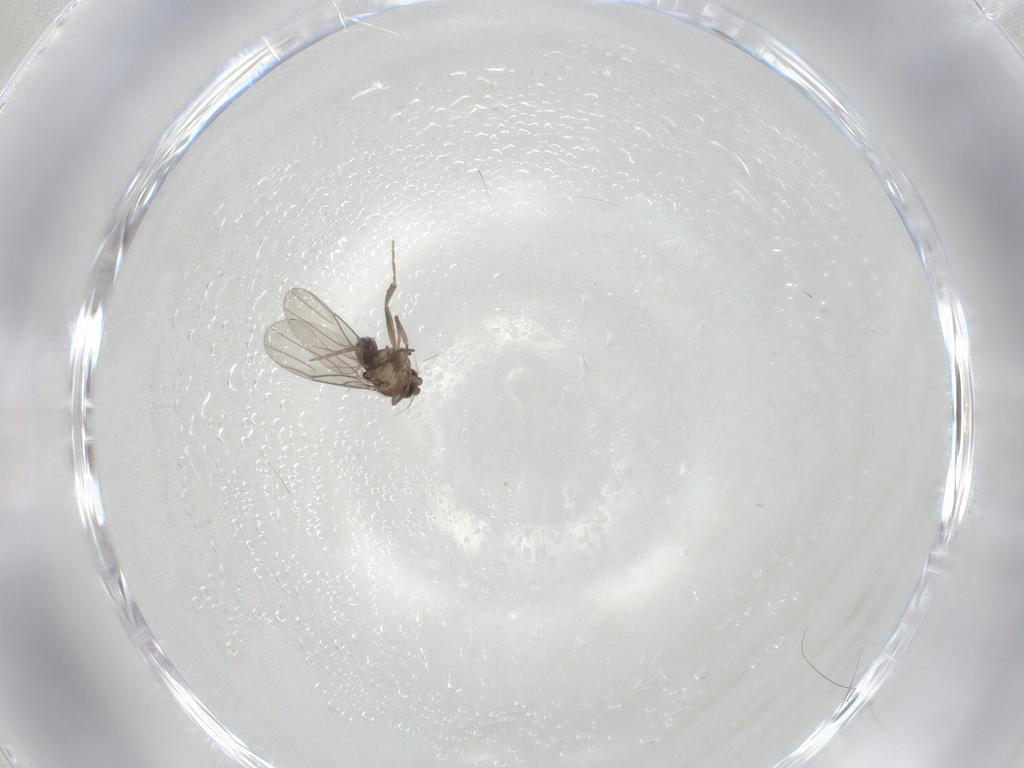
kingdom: Animalia
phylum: Arthropoda
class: Insecta
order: Diptera
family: Phoridae
